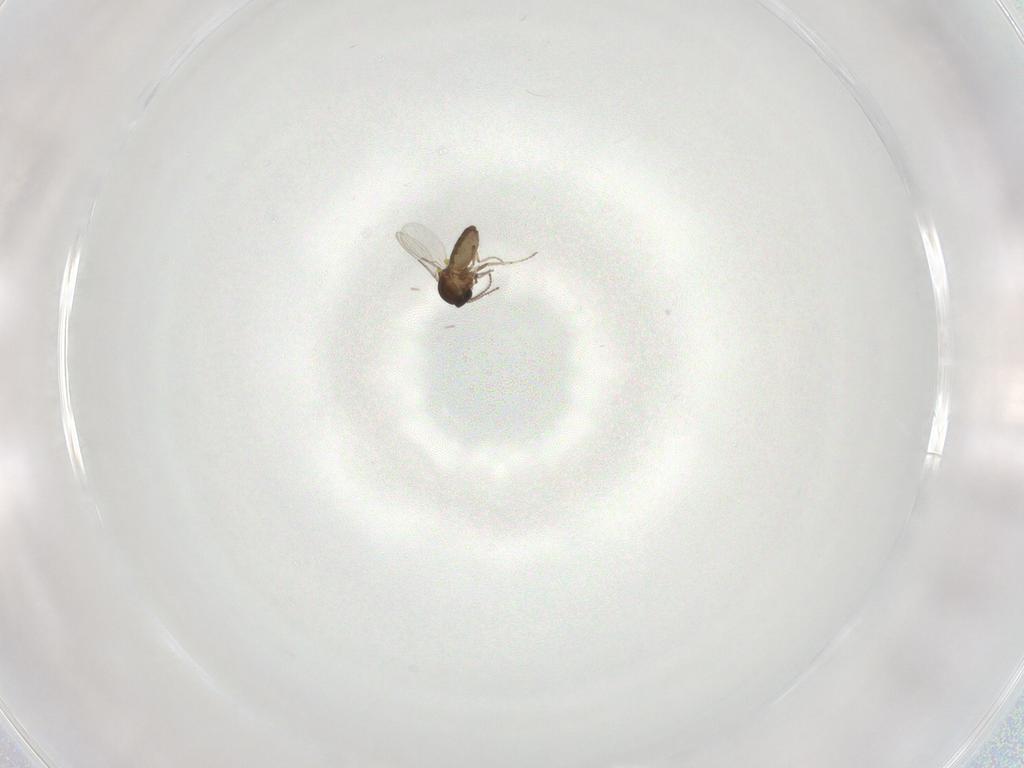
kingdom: Animalia
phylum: Arthropoda
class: Insecta
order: Diptera
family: Ceratopogonidae
